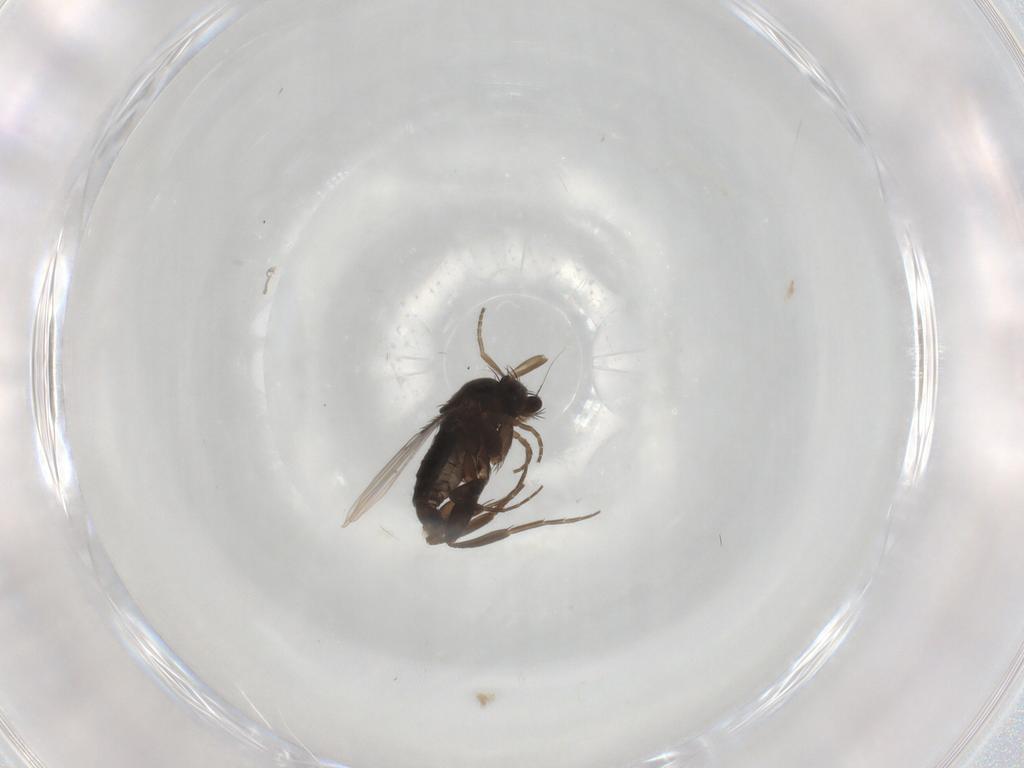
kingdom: Animalia
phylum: Arthropoda
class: Insecta
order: Diptera
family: Phoridae
